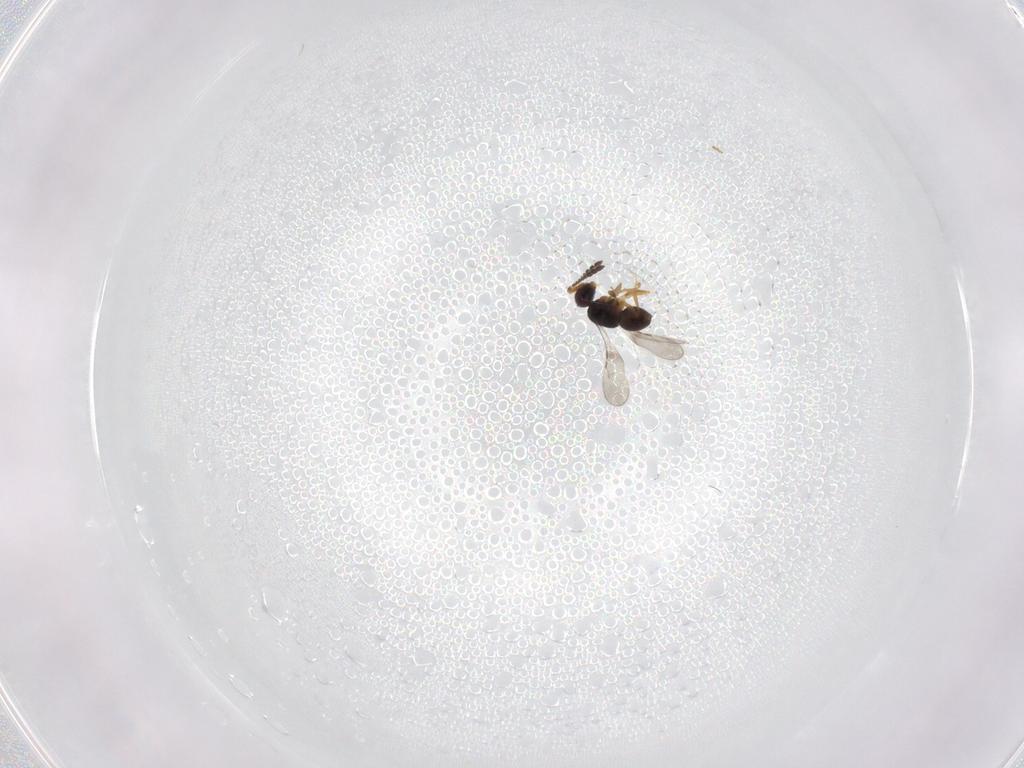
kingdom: Animalia
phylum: Arthropoda
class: Insecta
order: Hymenoptera
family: Ceraphronidae
